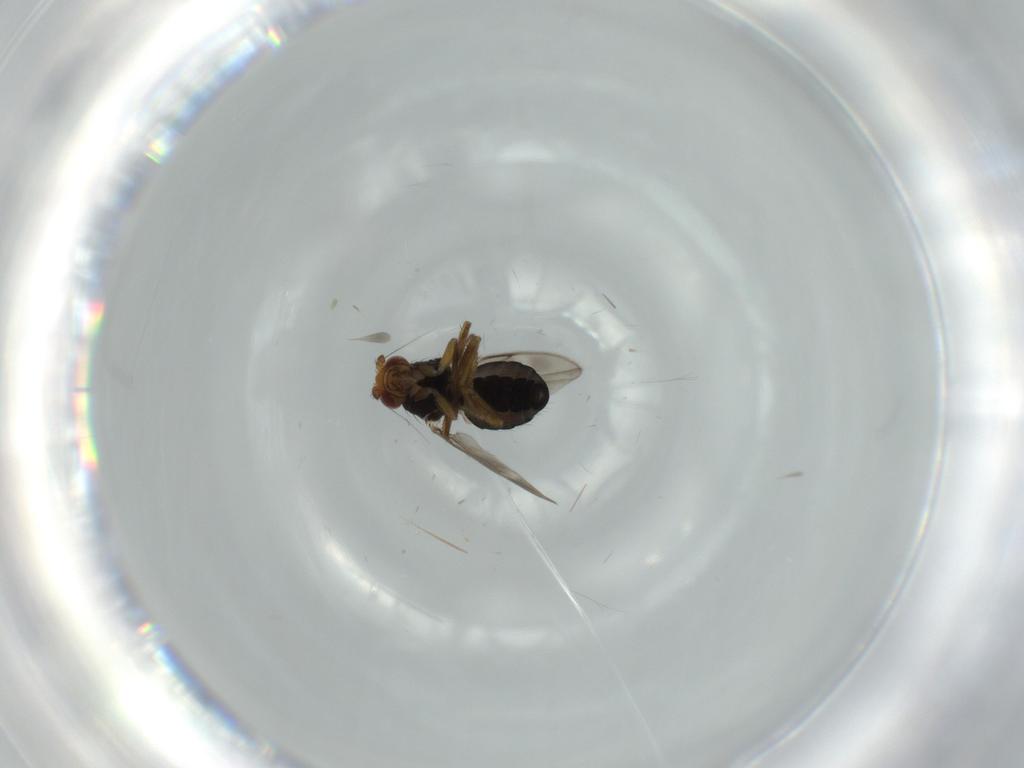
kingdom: Animalia
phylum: Arthropoda
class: Insecta
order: Diptera
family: Sphaeroceridae
